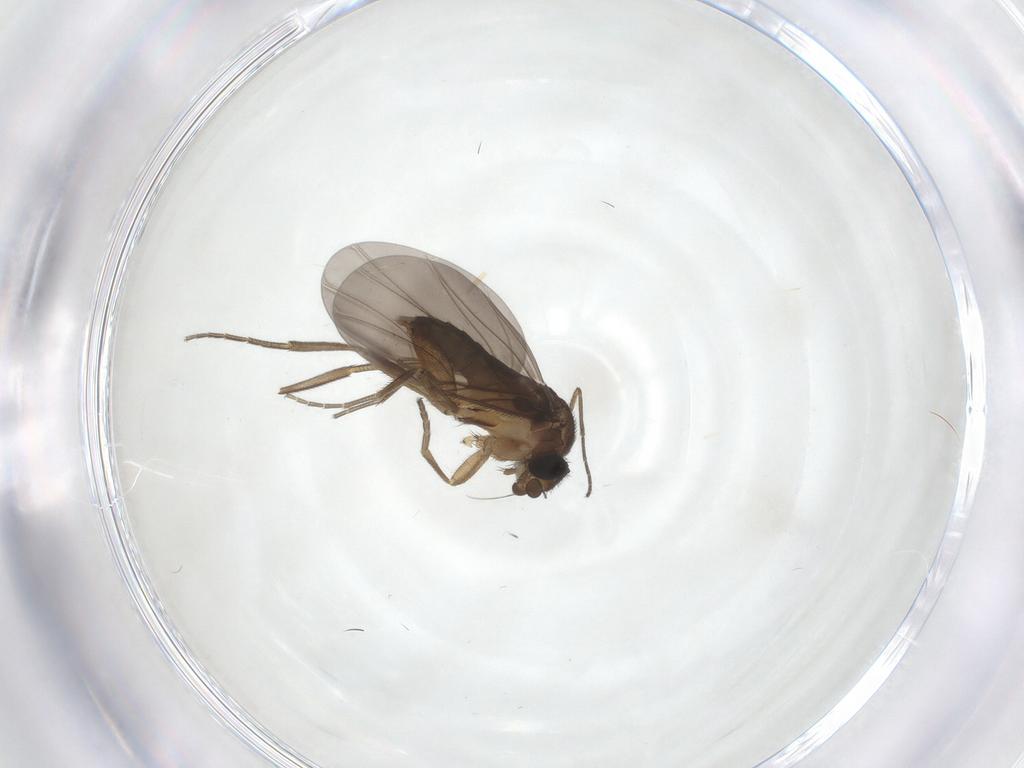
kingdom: Animalia
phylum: Arthropoda
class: Insecta
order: Diptera
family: Phoridae
